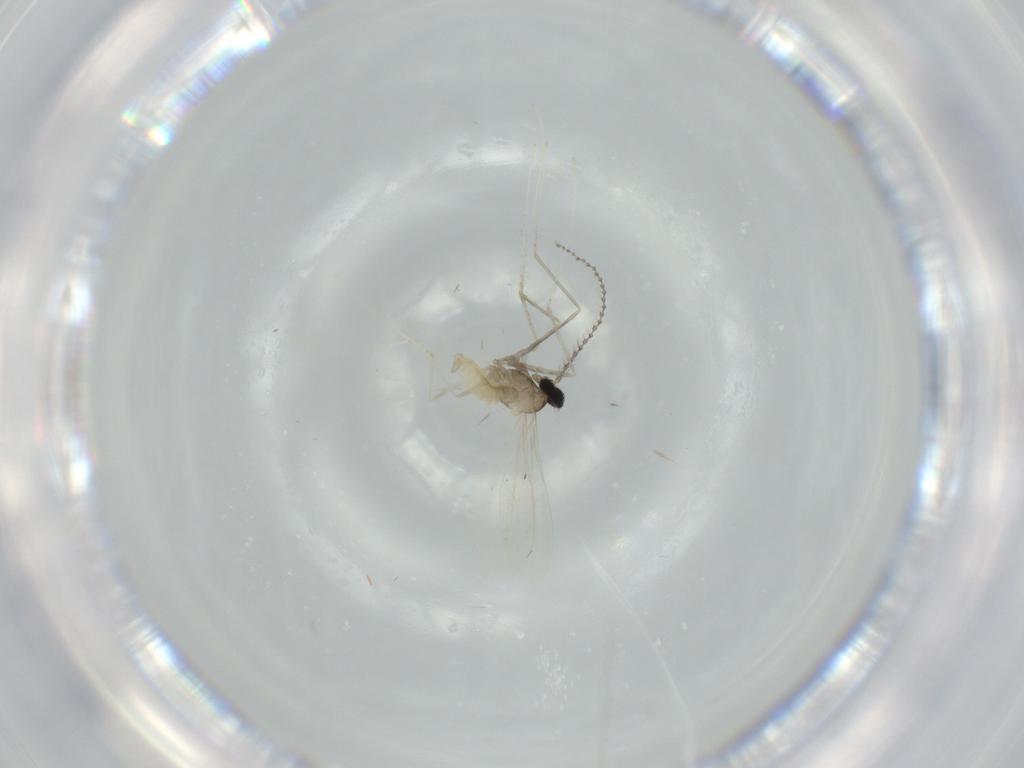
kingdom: Animalia
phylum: Arthropoda
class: Insecta
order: Diptera
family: Cecidomyiidae
